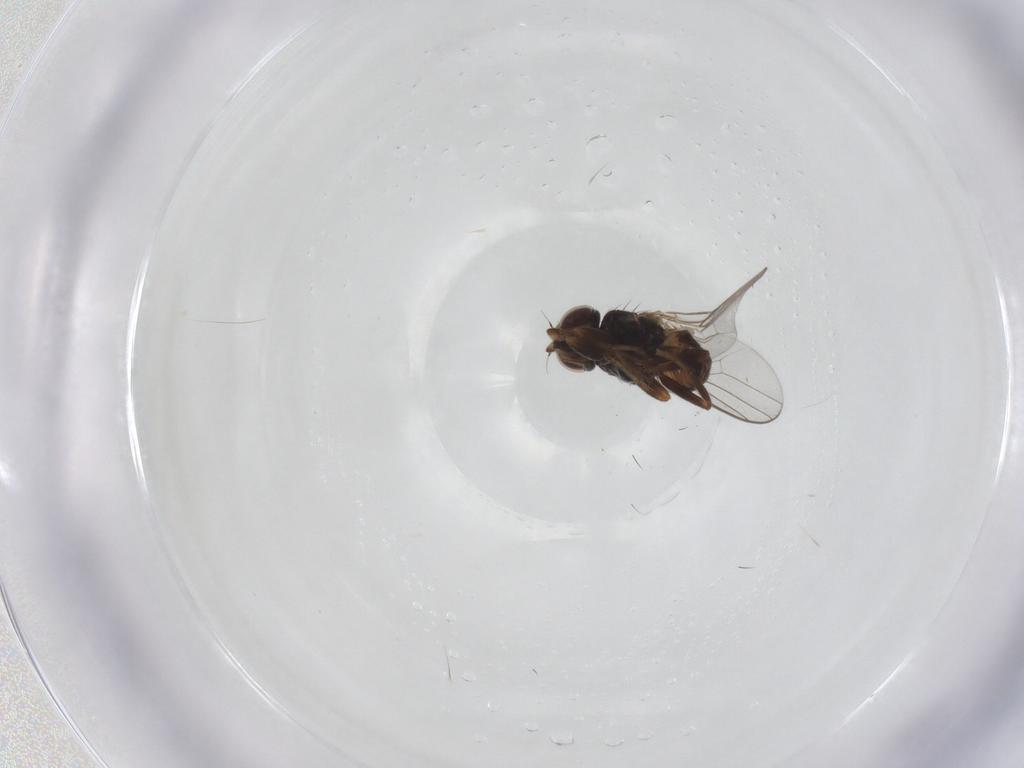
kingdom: Animalia
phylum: Arthropoda
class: Insecta
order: Diptera
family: Chloropidae
